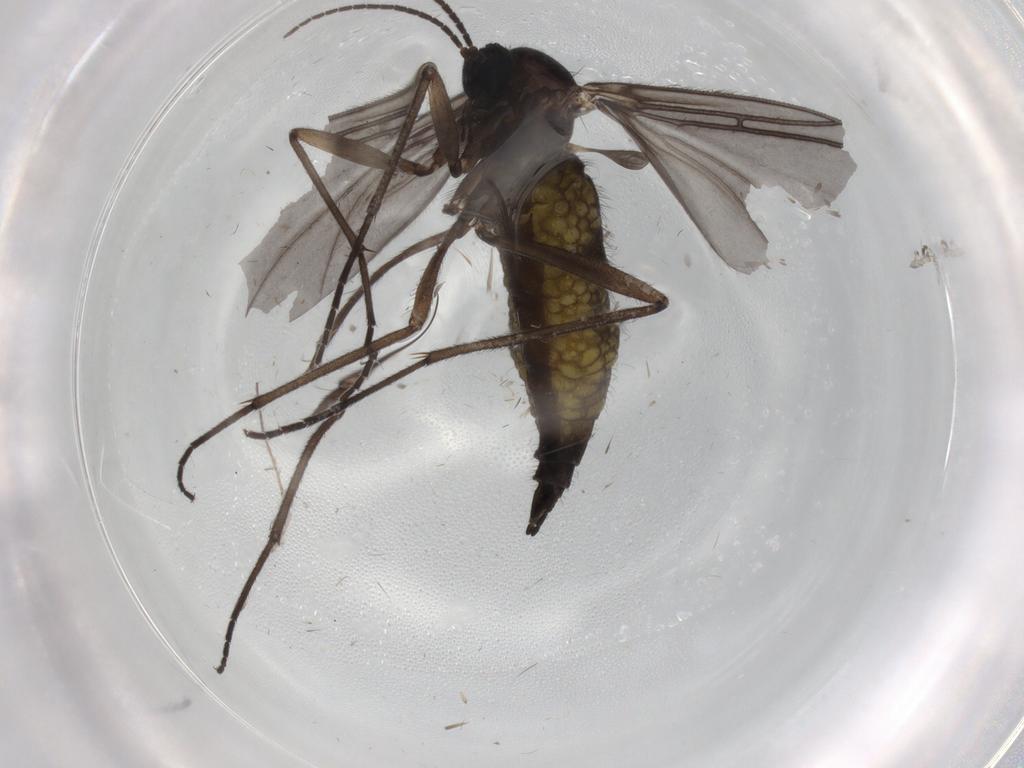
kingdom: Animalia
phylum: Arthropoda
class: Insecta
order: Diptera
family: Sciaridae
